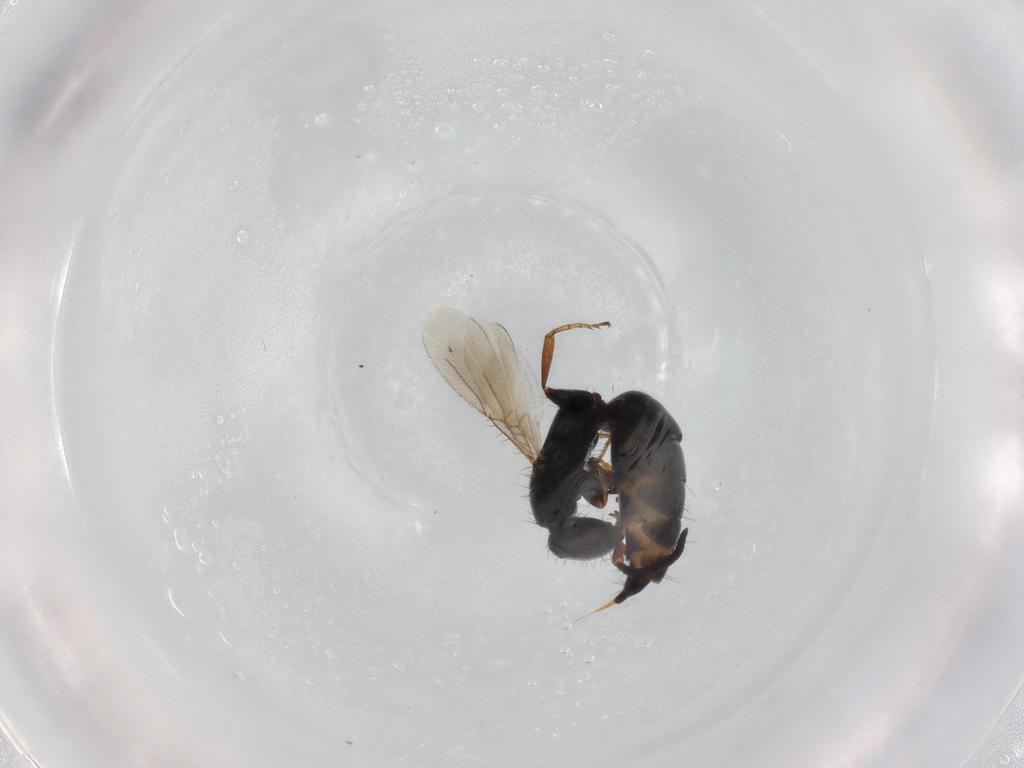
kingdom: Animalia
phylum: Arthropoda
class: Insecta
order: Hymenoptera
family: Bethylidae
